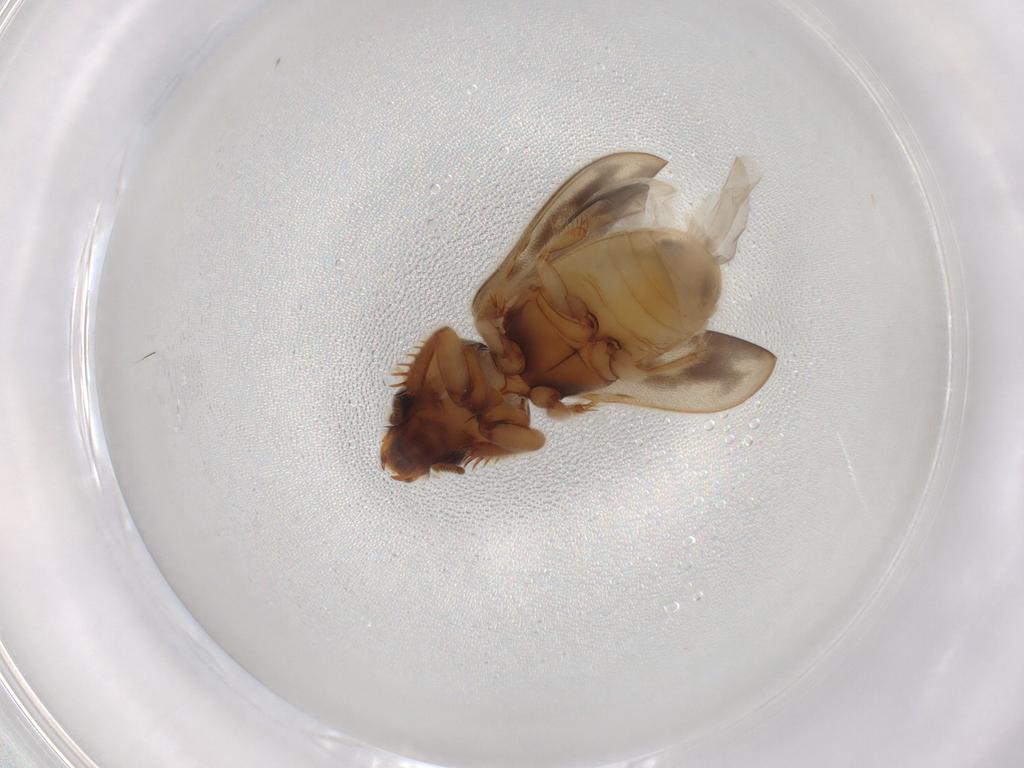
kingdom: Animalia
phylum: Arthropoda
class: Insecta
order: Coleoptera
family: Heteroceridae
